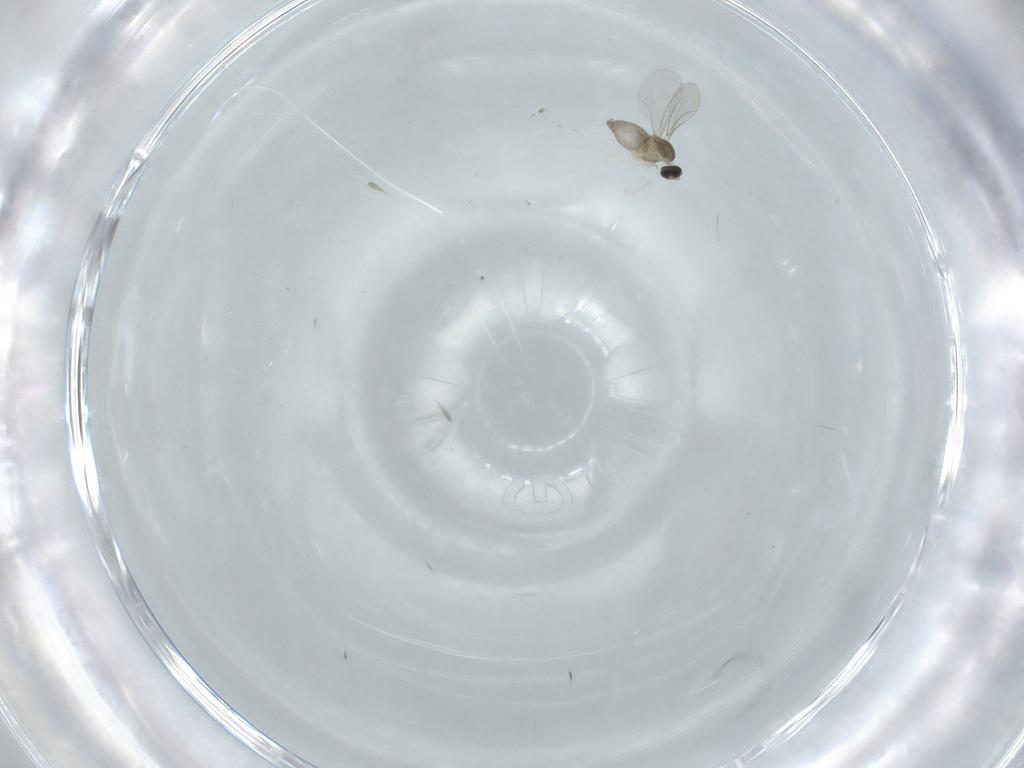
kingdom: Animalia
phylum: Arthropoda
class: Insecta
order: Diptera
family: Cecidomyiidae
